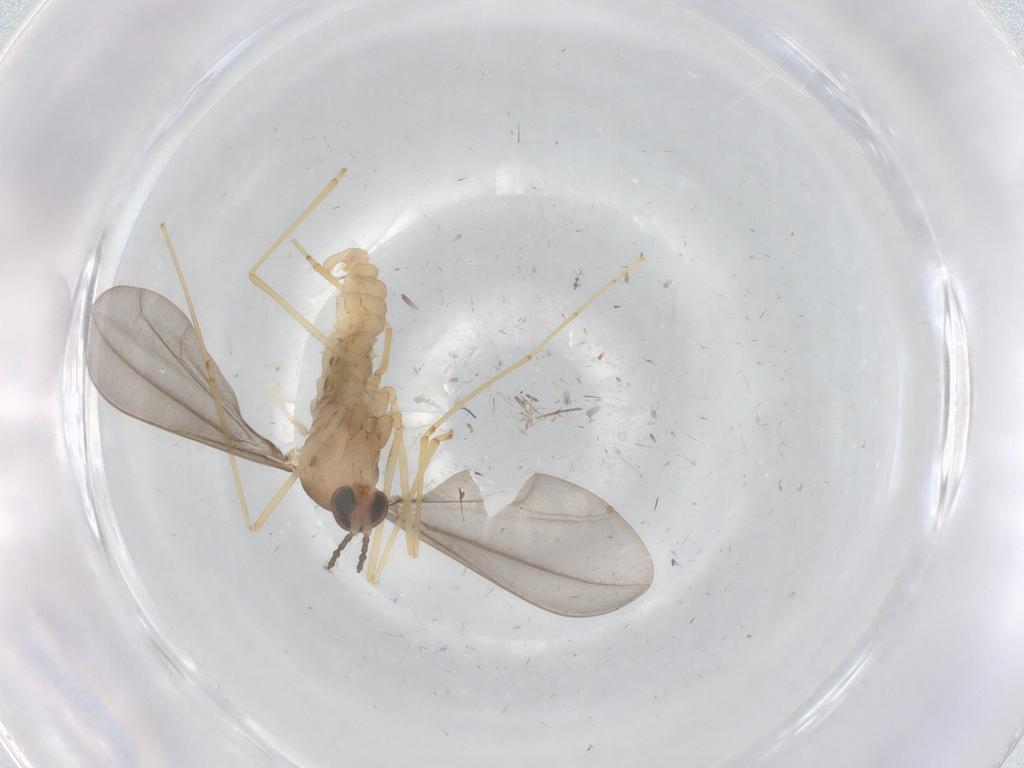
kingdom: Animalia
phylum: Arthropoda
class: Insecta
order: Diptera
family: Cecidomyiidae
